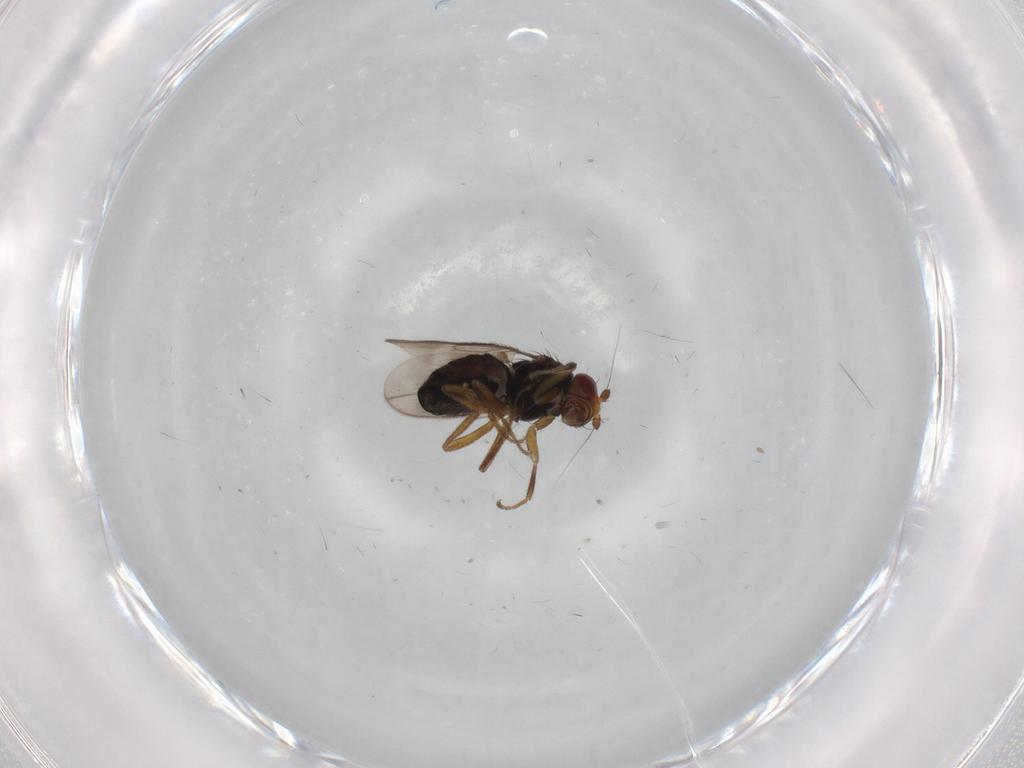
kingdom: Animalia
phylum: Arthropoda
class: Insecta
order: Diptera
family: Sphaeroceridae
